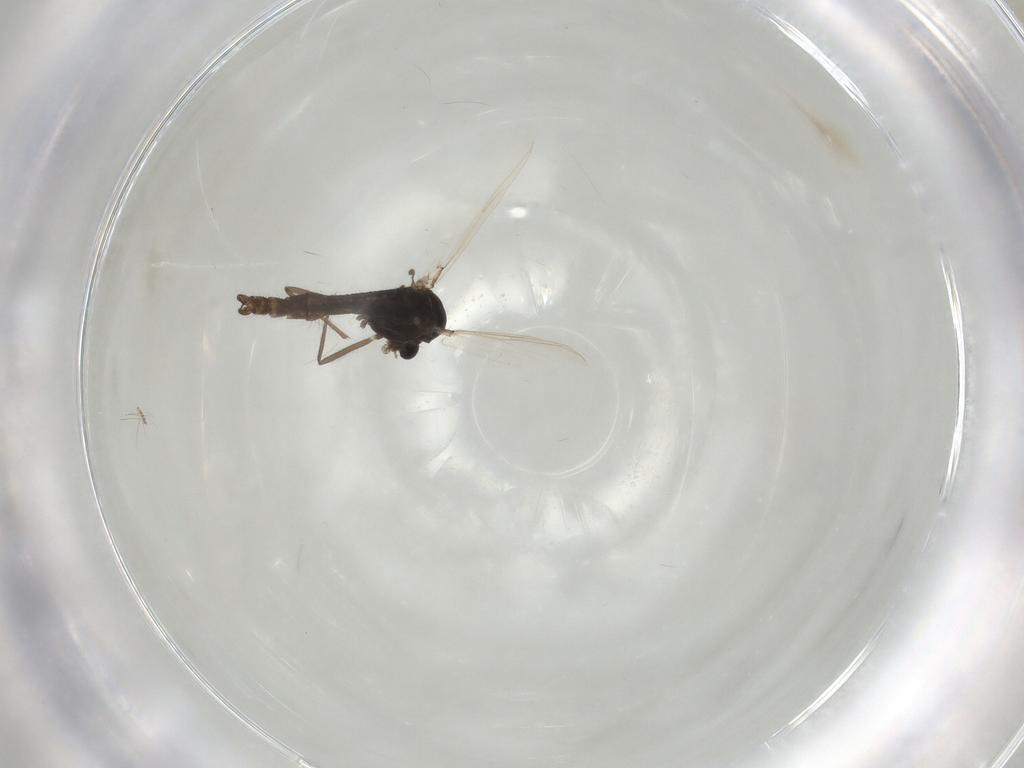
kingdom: Animalia
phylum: Arthropoda
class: Insecta
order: Diptera
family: Chironomidae
